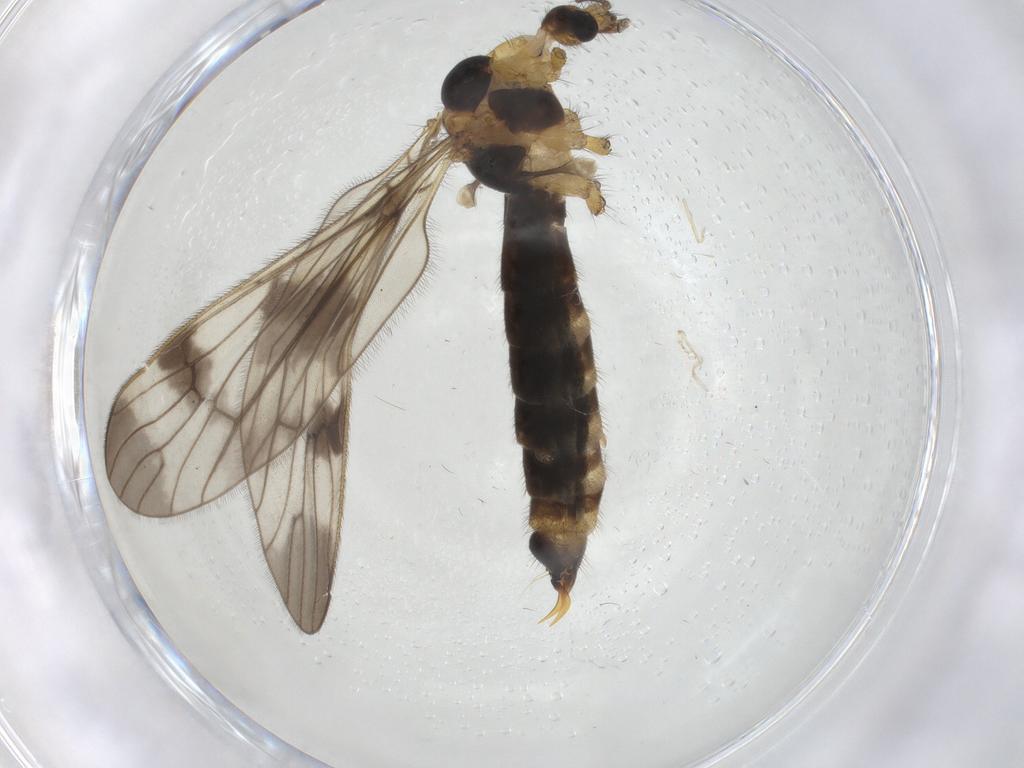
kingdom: Animalia
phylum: Arthropoda
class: Insecta
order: Diptera
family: Limoniidae
